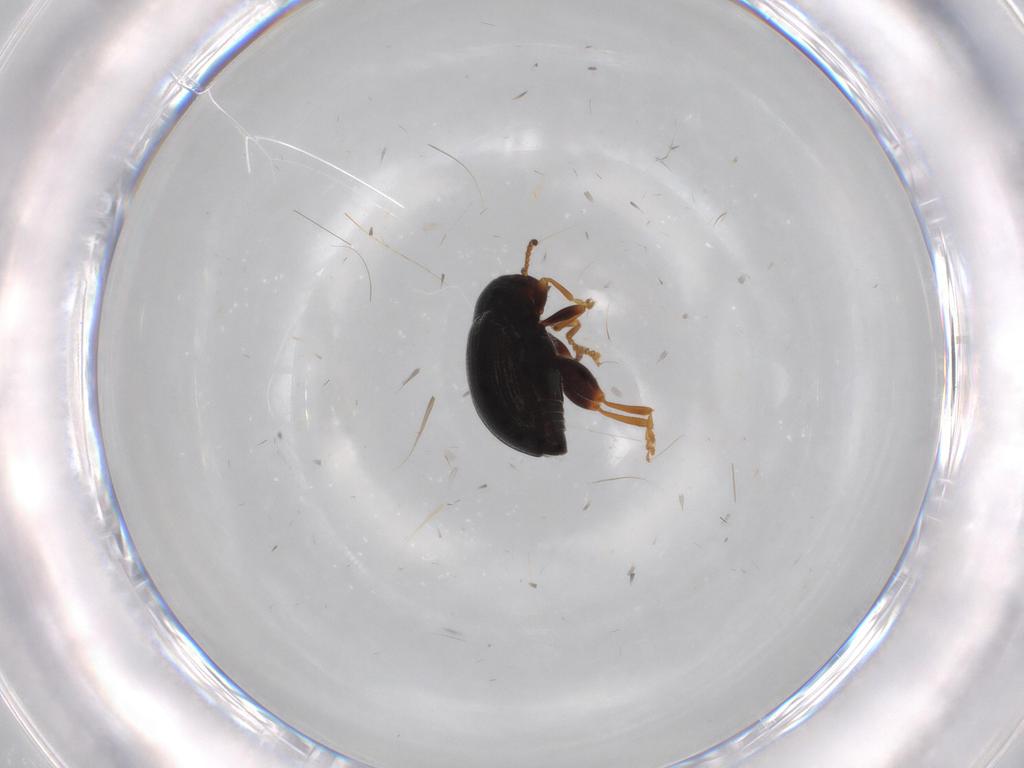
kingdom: Animalia
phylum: Arthropoda
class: Insecta
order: Coleoptera
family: Chrysomelidae
